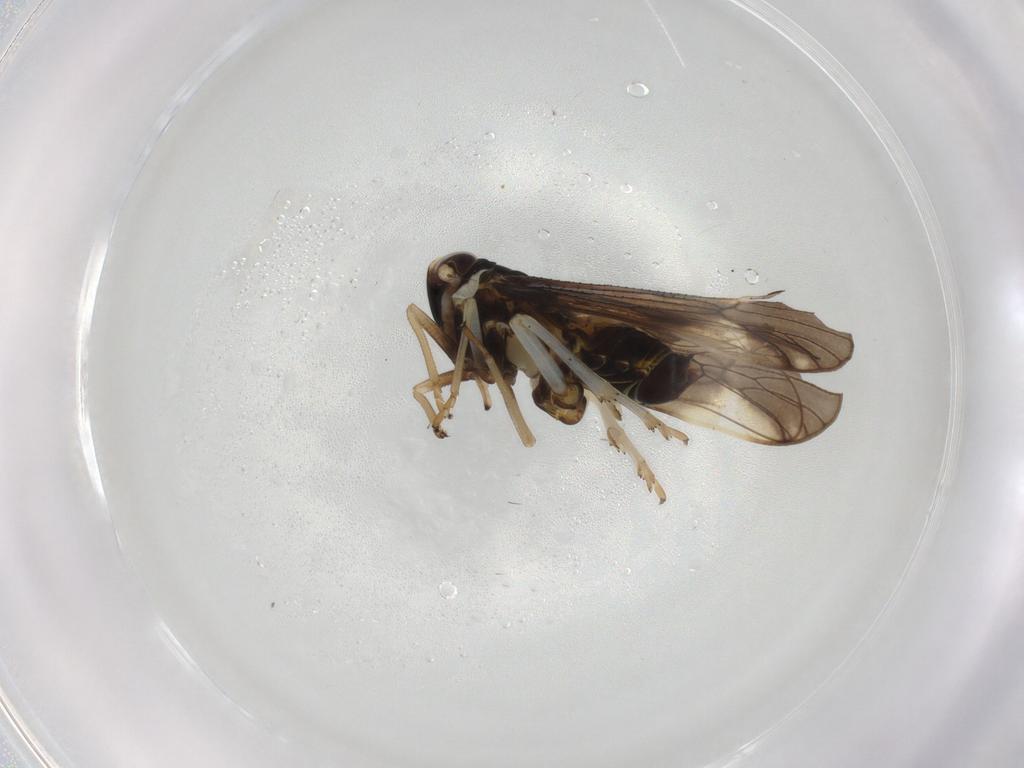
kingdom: Animalia
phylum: Arthropoda
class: Insecta
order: Hemiptera
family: Delphacidae
